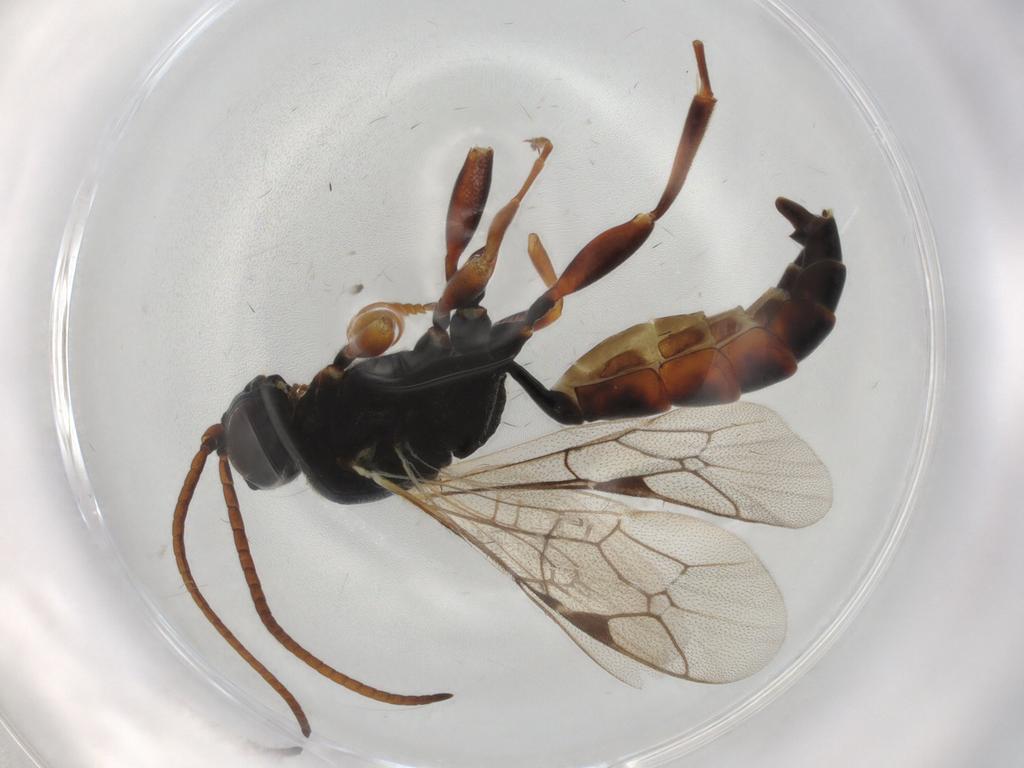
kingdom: Animalia
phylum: Arthropoda
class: Insecta
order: Hymenoptera
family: Ichneumonidae
